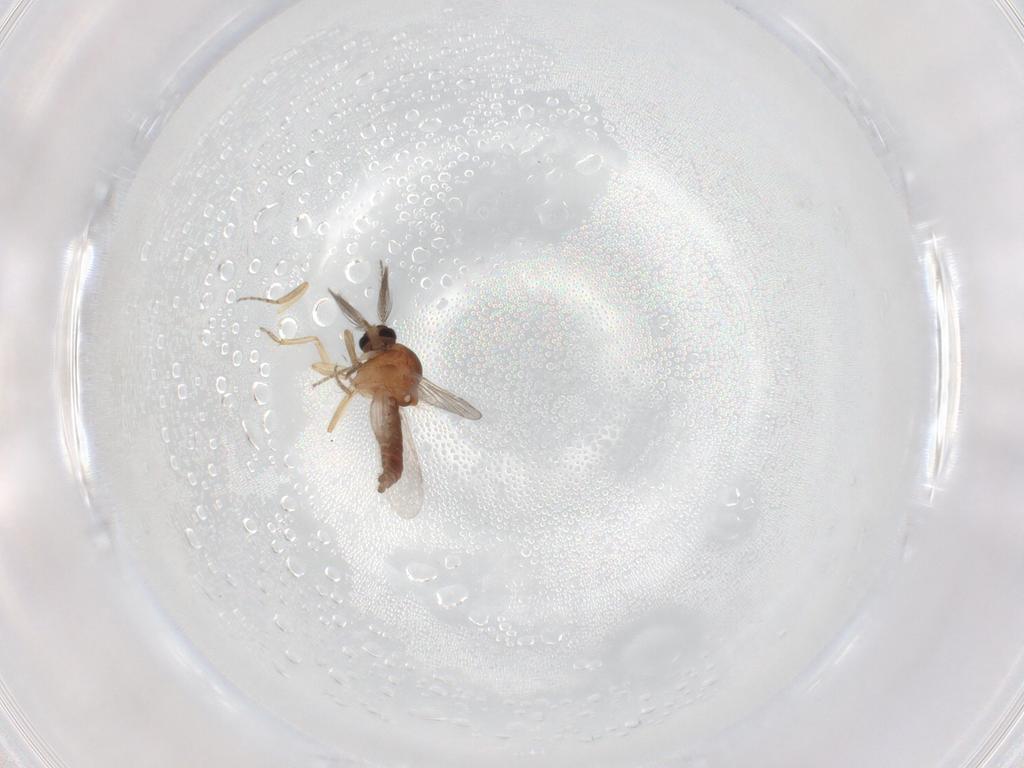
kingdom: Animalia
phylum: Arthropoda
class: Insecta
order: Diptera
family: Ceratopogonidae
